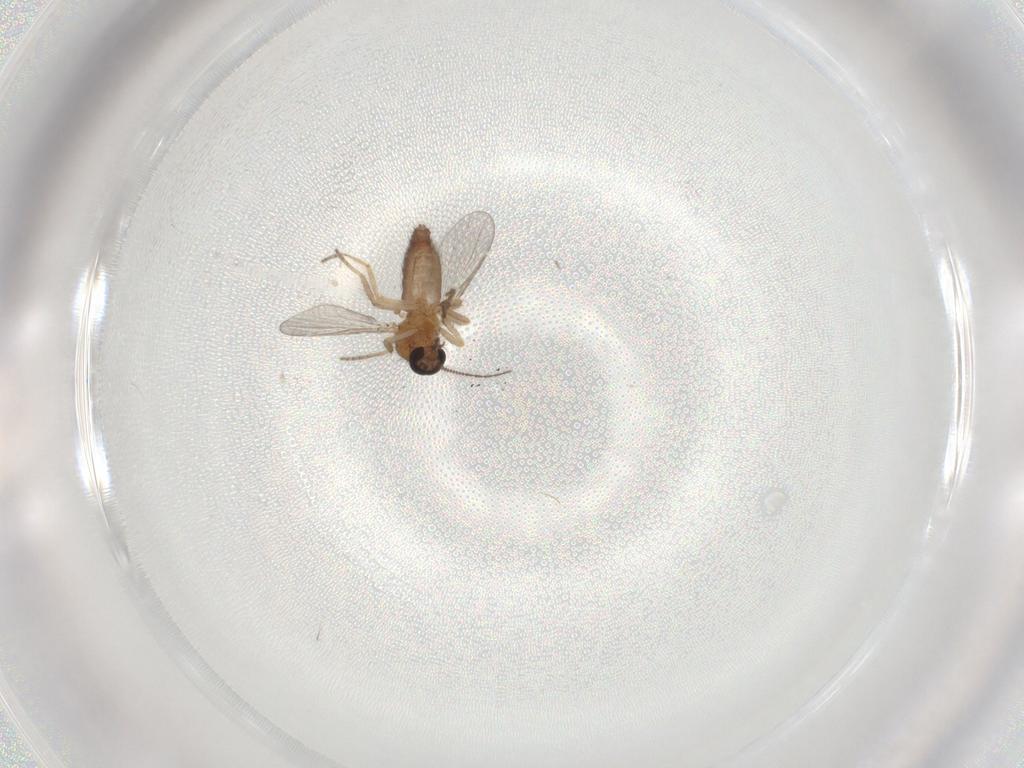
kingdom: Animalia
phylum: Arthropoda
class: Insecta
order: Diptera
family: Ceratopogonidae
